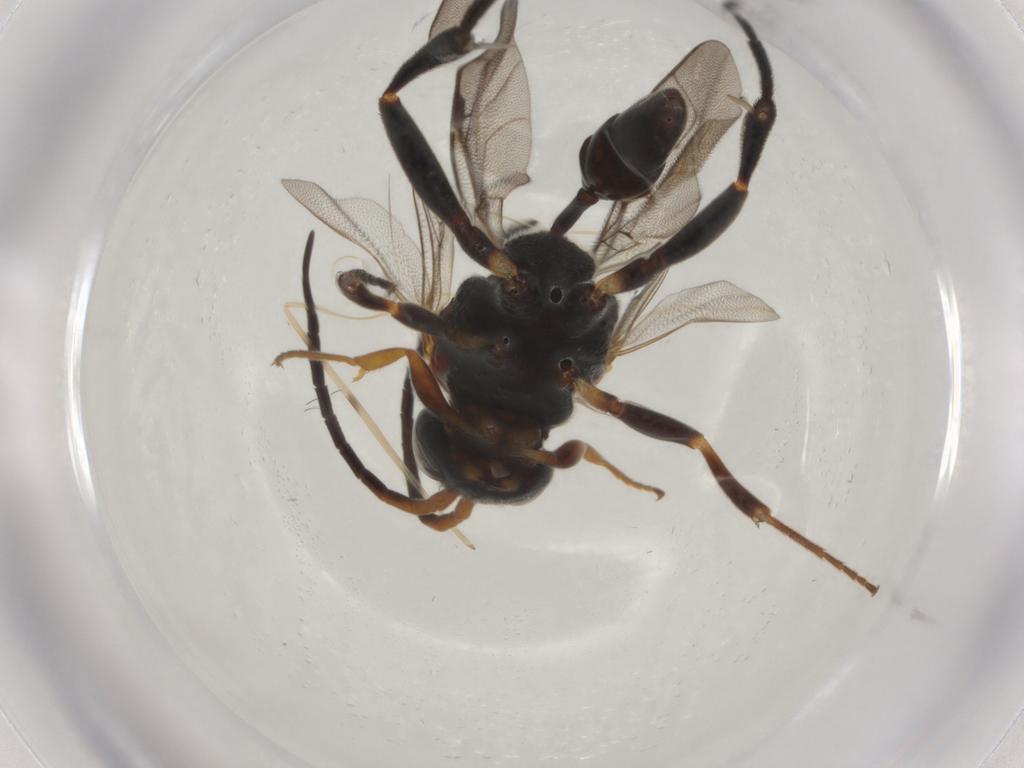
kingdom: Animalia
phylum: Arthropoda
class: Insecta
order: Hymenoptera
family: Evaniidae
